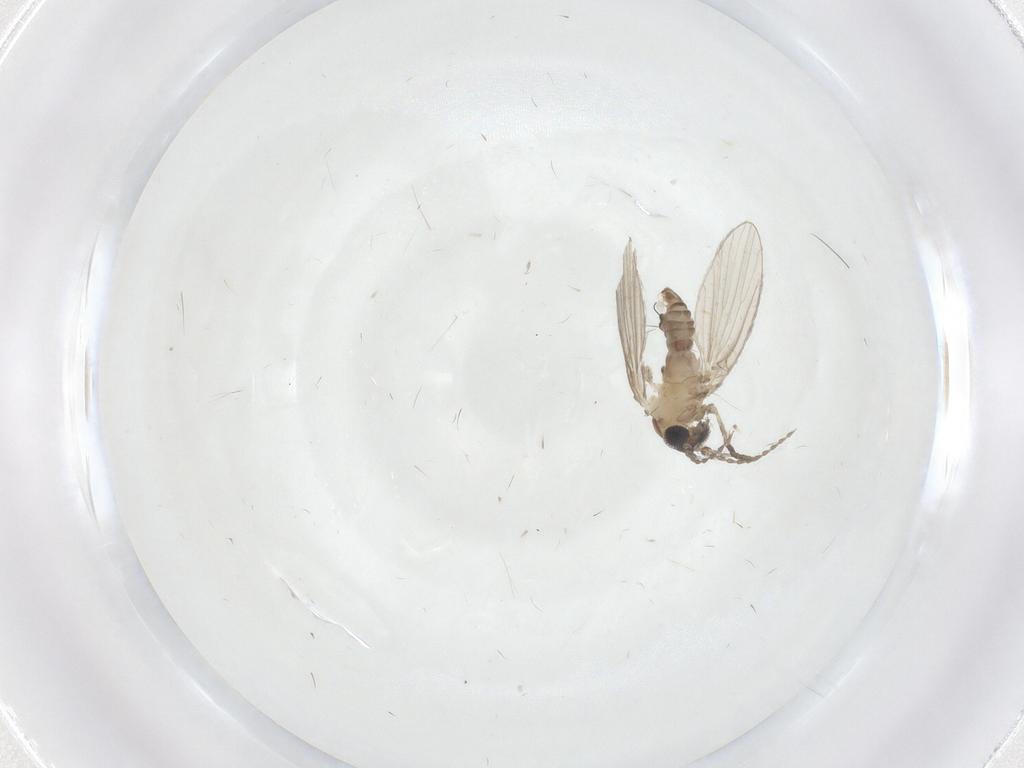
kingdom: Animalia
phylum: Arthropoda
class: Insecta
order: Diptera
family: Psychodidae
